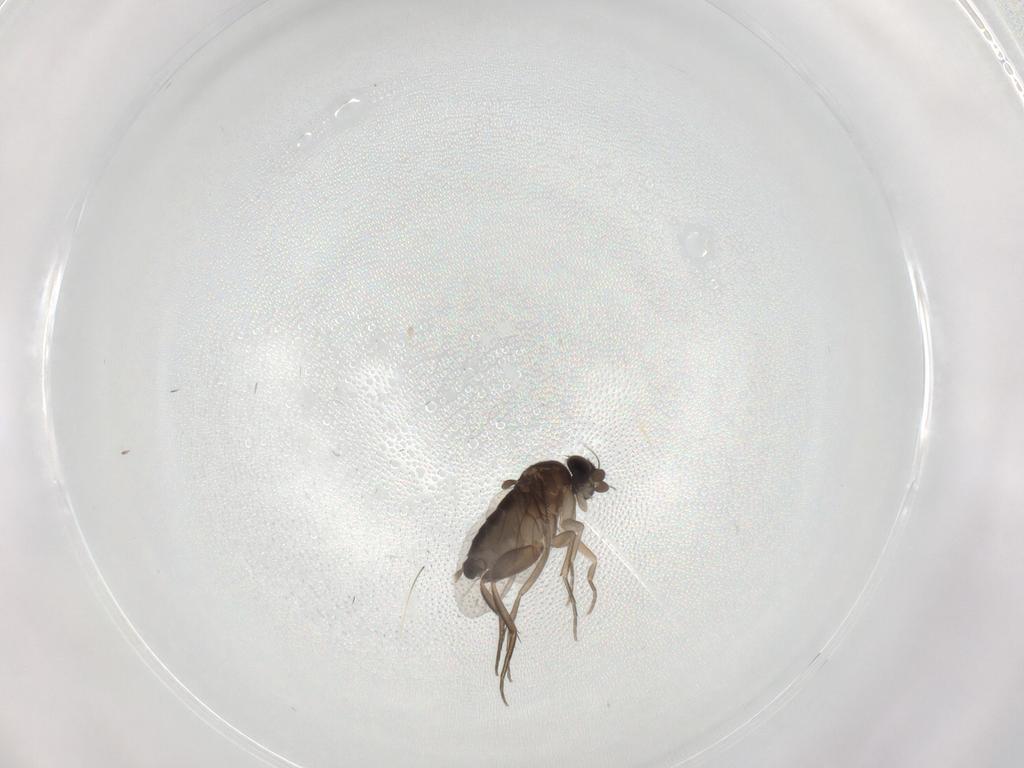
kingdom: Animalia
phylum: Arthropoda
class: Insecta
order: Diptera
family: Phoridae
